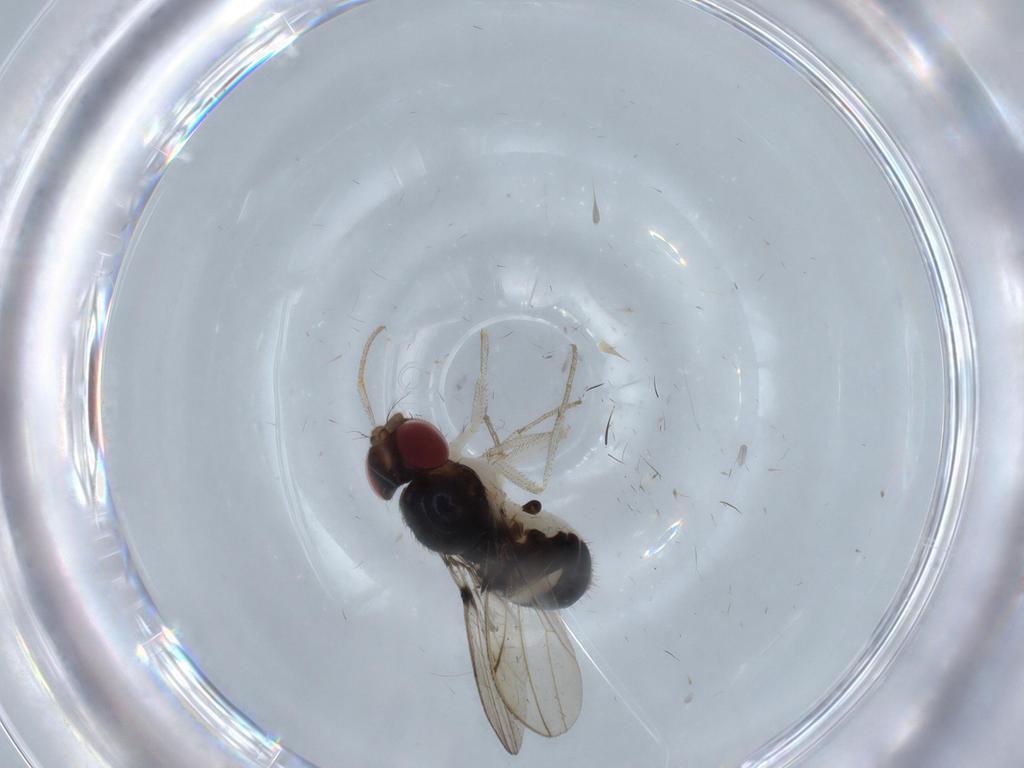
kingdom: Animalia
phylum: Arthropoda
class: Insecta
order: Diptera
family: Drosophilidae
